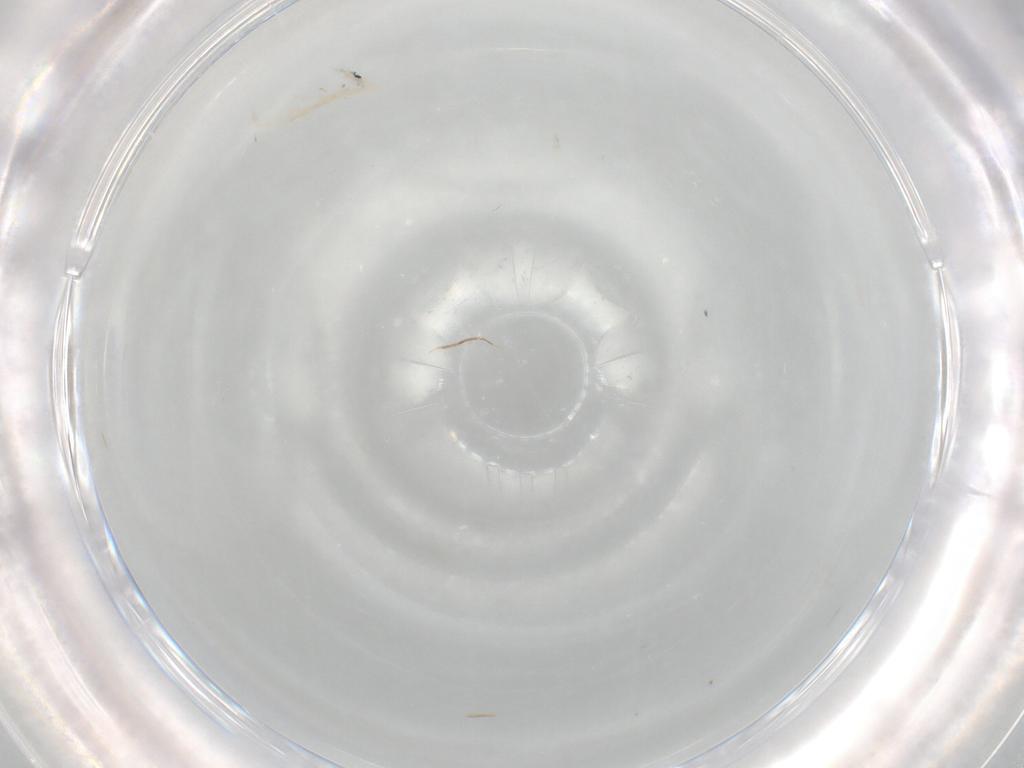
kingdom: Animalia
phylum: Arthropoda
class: Collembola
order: Entomobryomorpha
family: Entomobryidae
